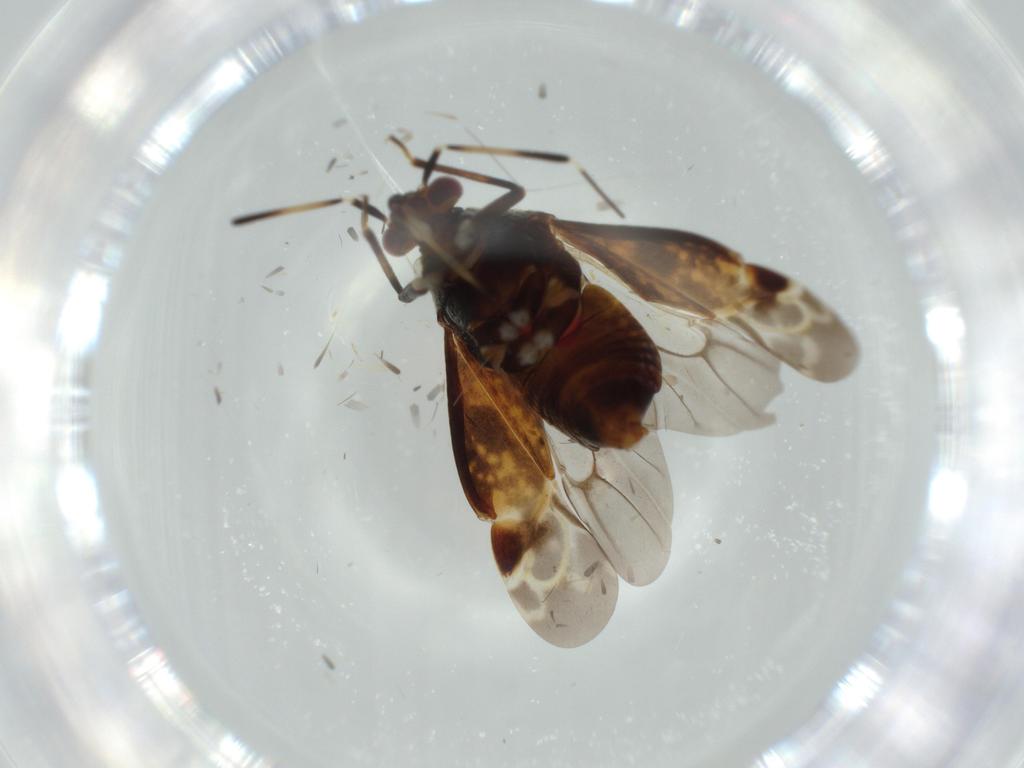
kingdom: Animalia
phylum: Arthropoda
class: Insecta
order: Hemiptera
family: Miridae
